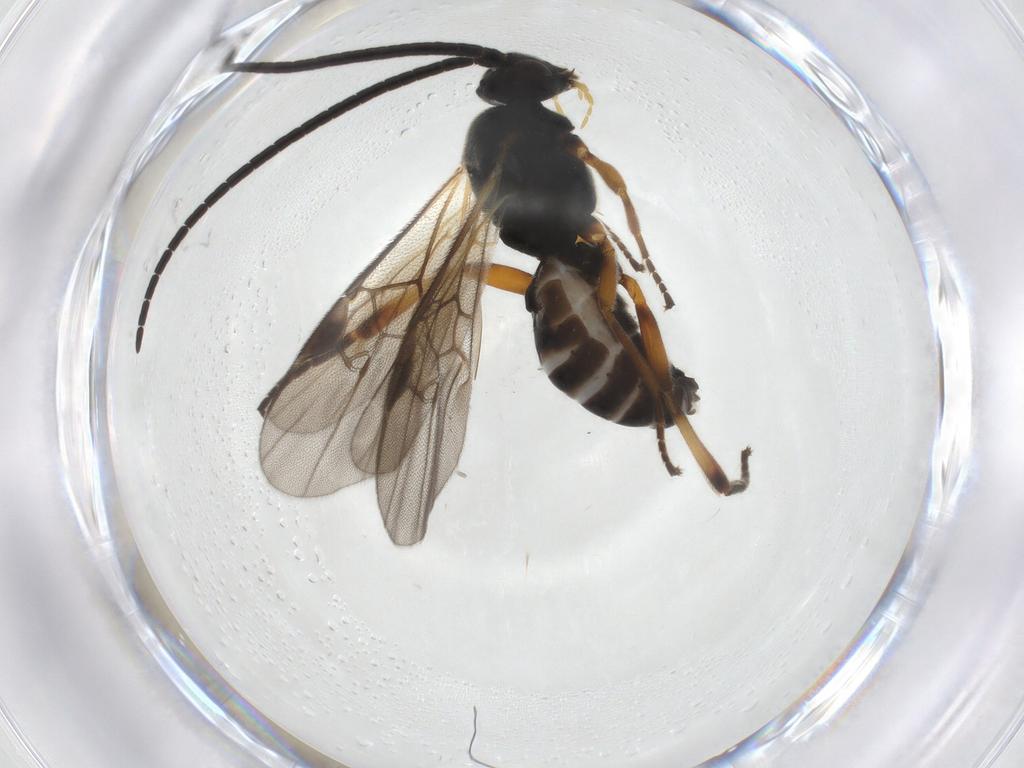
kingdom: Animalia
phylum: Arthropoda
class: Insecta
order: Hymenoptera
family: Braconidae
